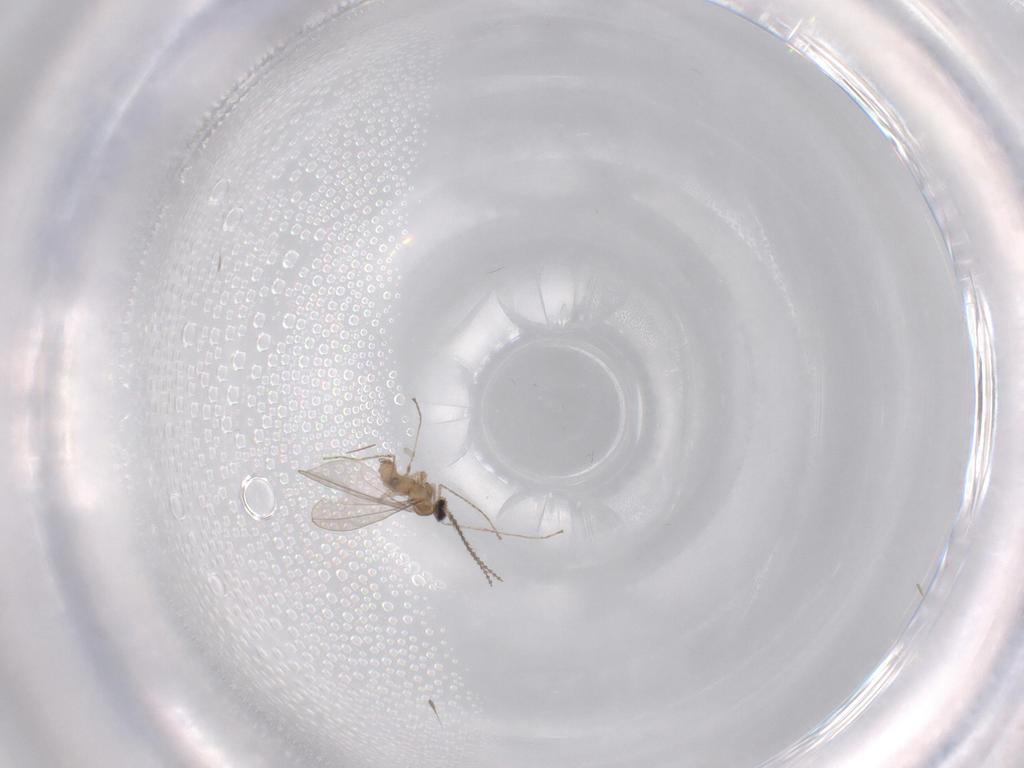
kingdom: Animalia
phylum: Arthropoda
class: Insecta
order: Diptera
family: Cecidomyiidae
